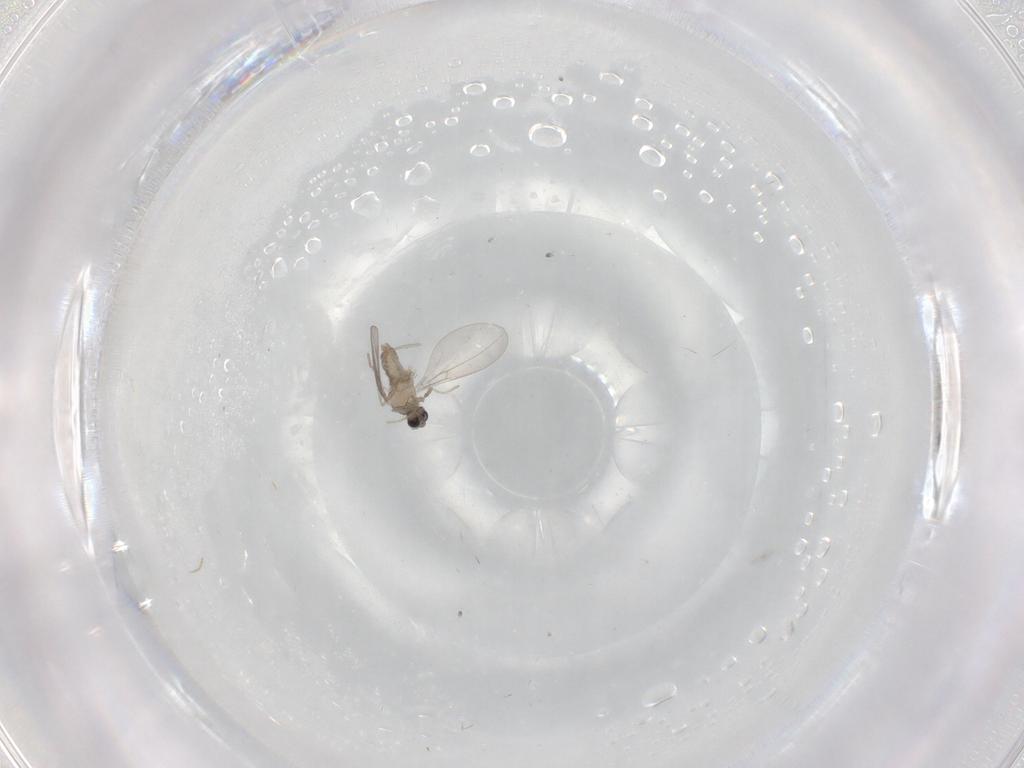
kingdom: Animalia
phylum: Arthropoda
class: Insecta
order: Diptera
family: Cecidomyiidae
